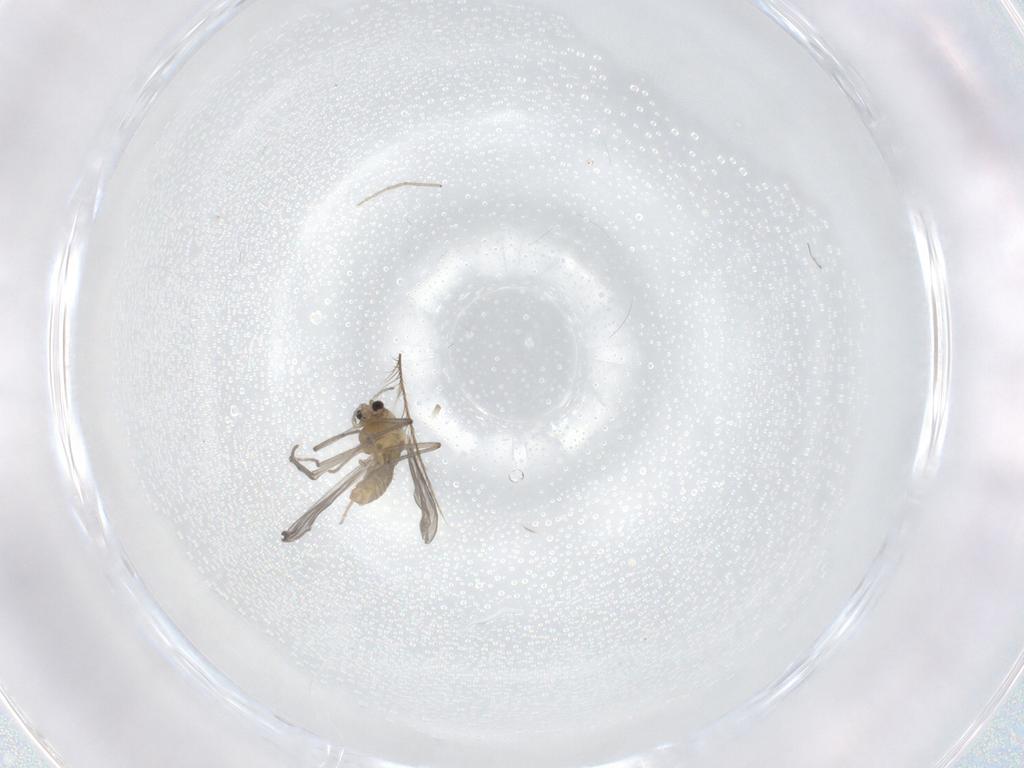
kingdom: Animalia
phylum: Arthropoda
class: Insecta
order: Diptera
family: Chironomidae
